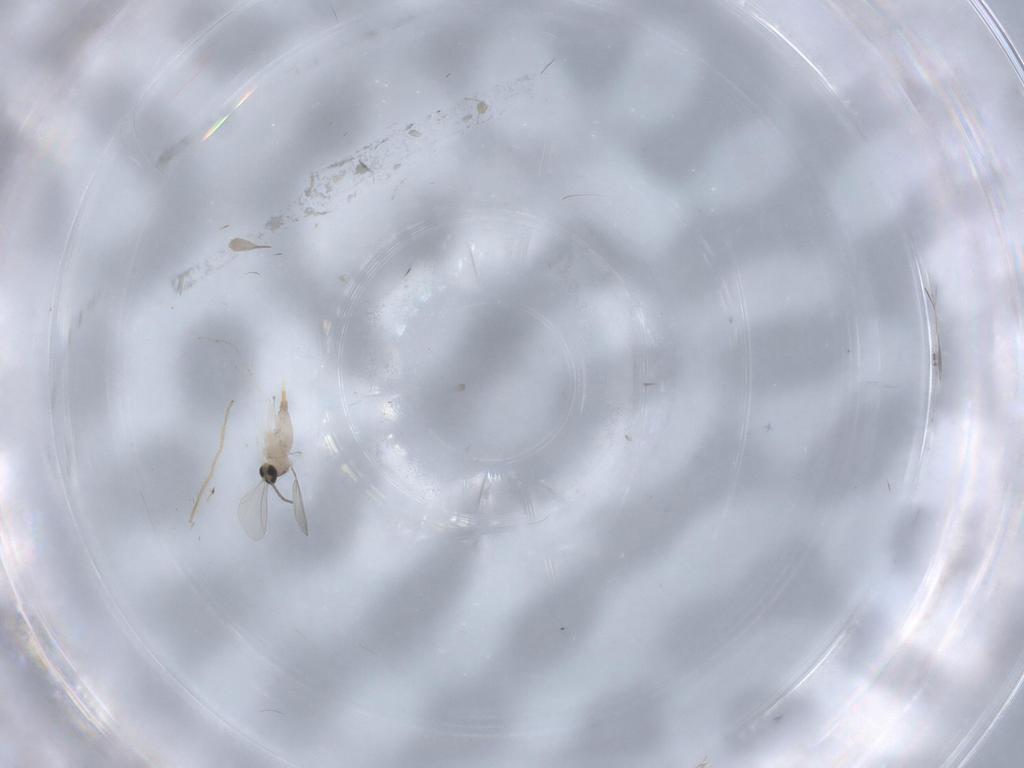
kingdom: Animalia
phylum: Arthropoda
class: Insecta
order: Diptera
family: Cecidomyiidae
